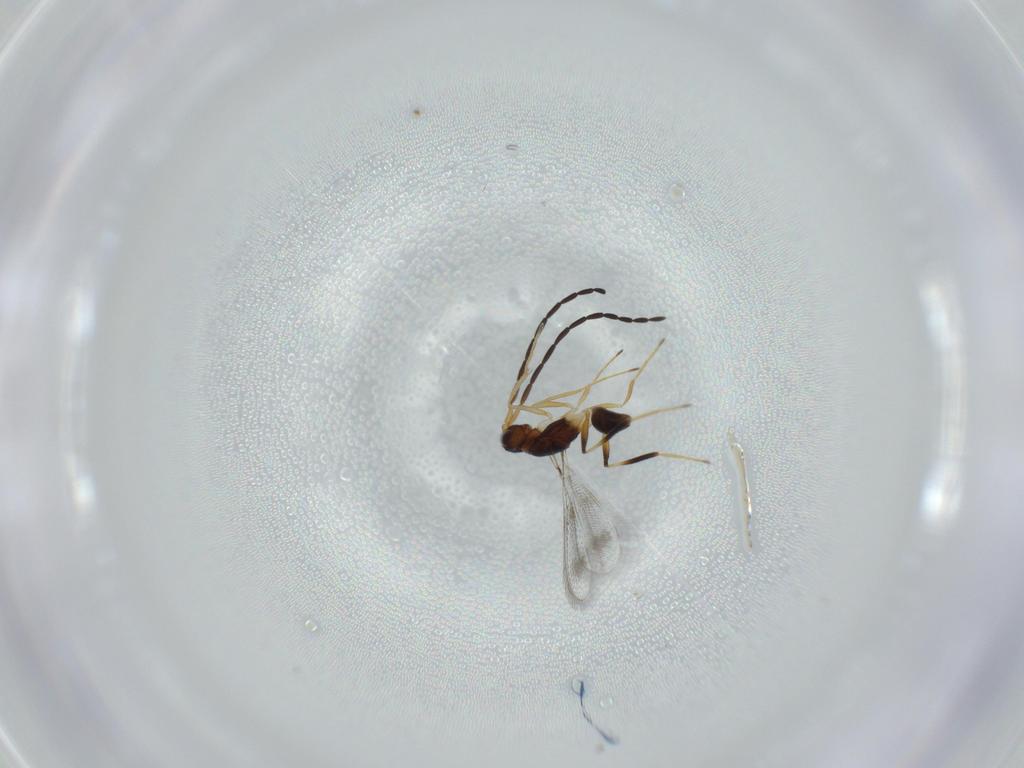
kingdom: Animalia
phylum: Arthropoda
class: Insecta
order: Hymenoptera
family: Mymaridae
